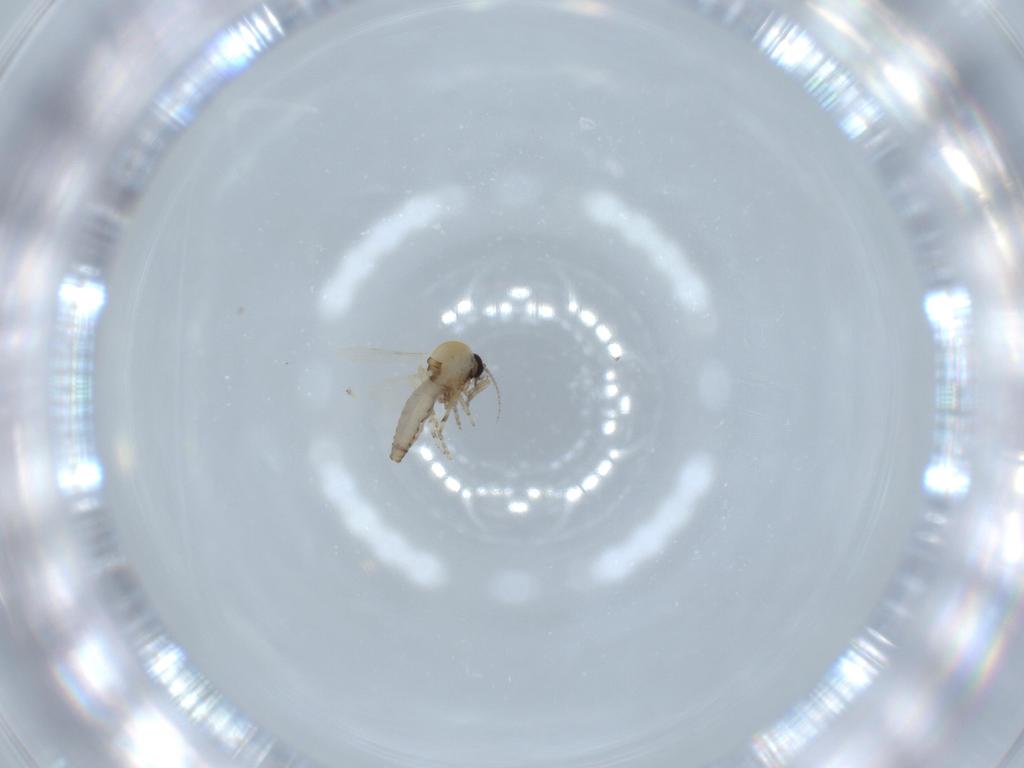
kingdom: Animalia
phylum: Arthropoda
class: Insecta
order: Diptera
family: Ceratopogonidae
